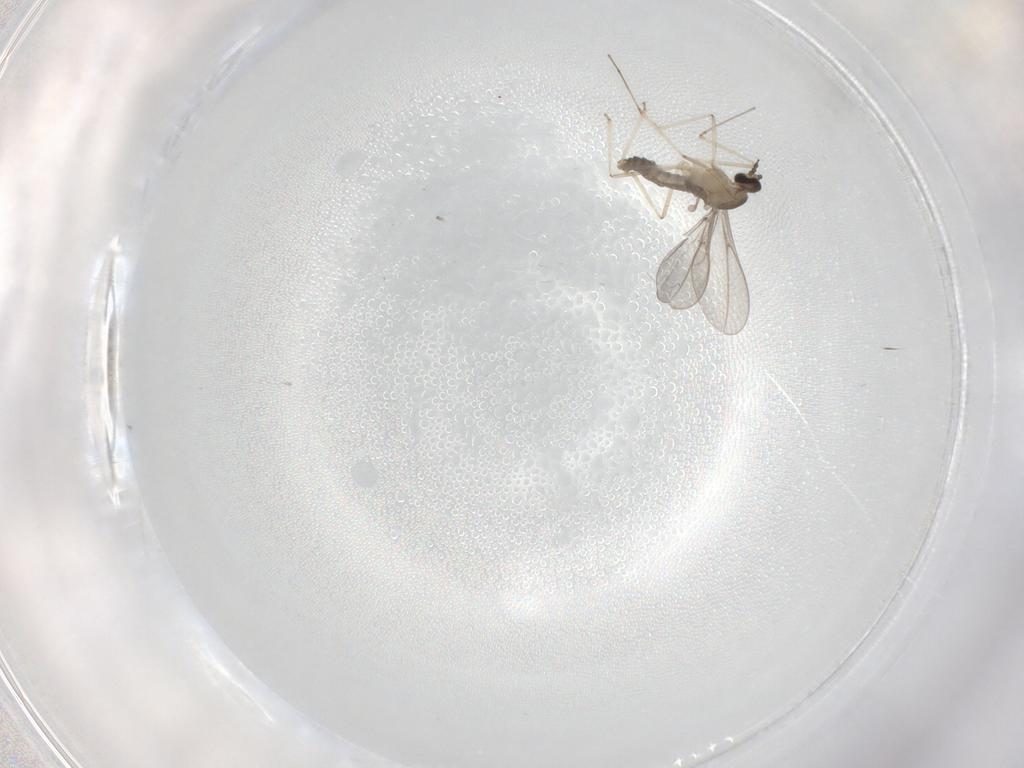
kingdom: Animalia
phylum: Arthropoda
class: Insecta
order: Diptera
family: Cecidomyiidae
